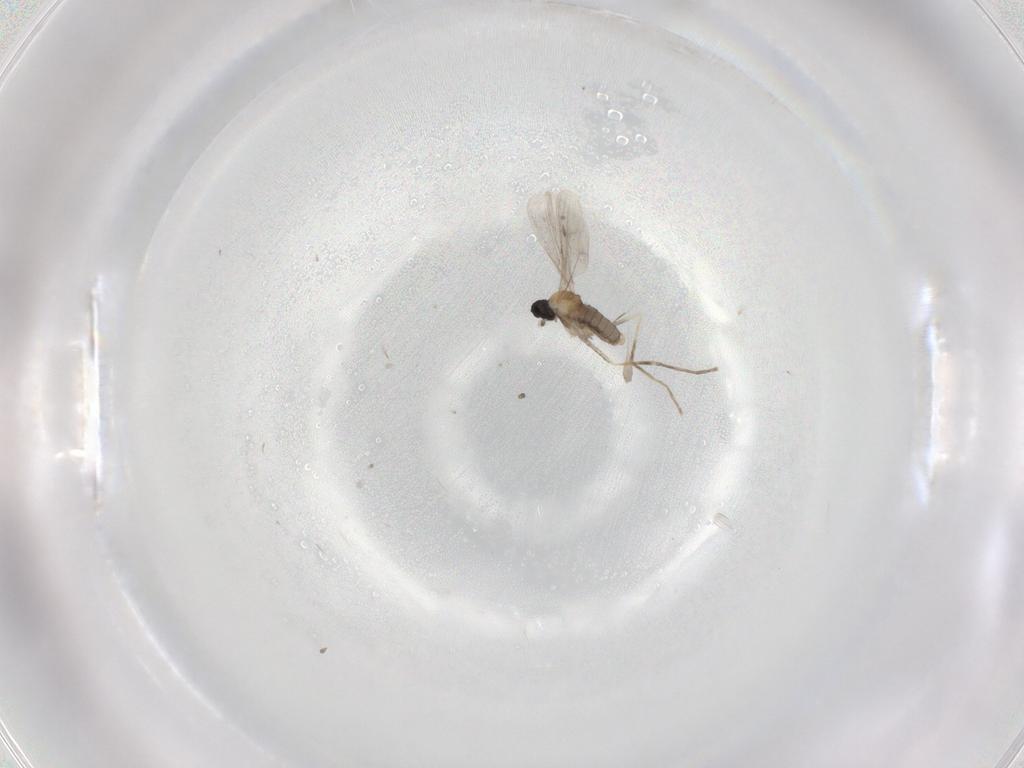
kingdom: Animalia
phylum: Arthropoda
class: Insecta
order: Diptera
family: Cecidomyiidae
